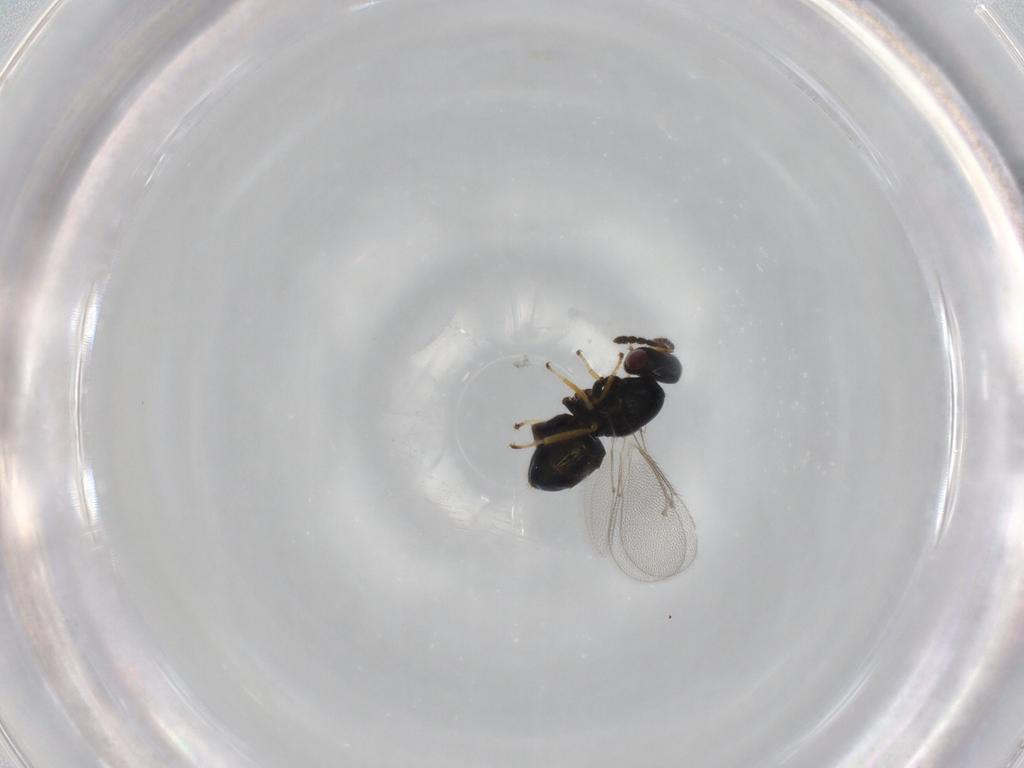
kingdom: Animalia
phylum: Arthropoda
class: Insecta
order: Hymenoptera
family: Eulophidae
